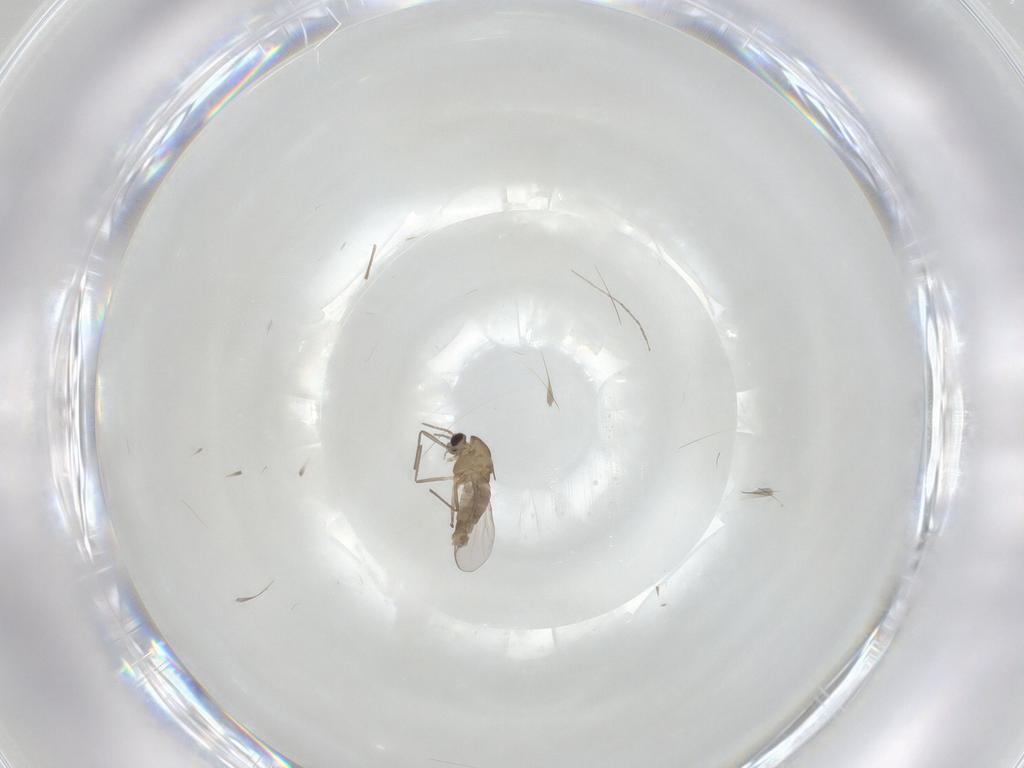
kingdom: Animalia
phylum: Arthropoda
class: Insecta
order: Diptera
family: Chironomidae
